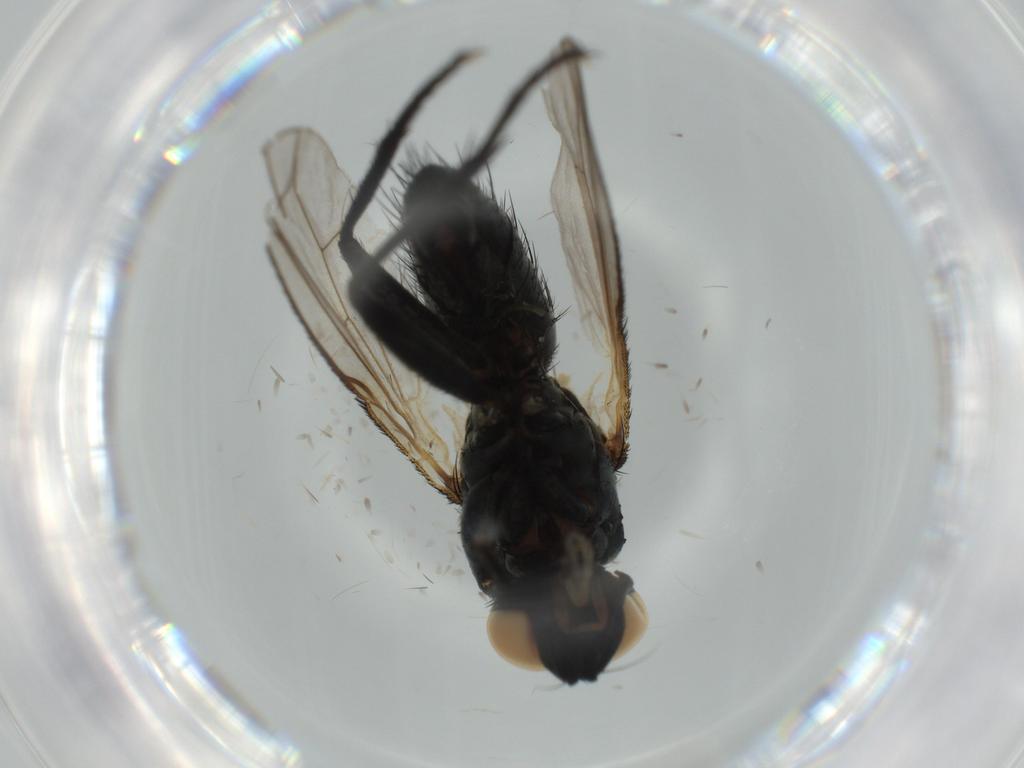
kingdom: Animalia
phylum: Arthropoda
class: Insecta
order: Diptera
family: Muscidae
